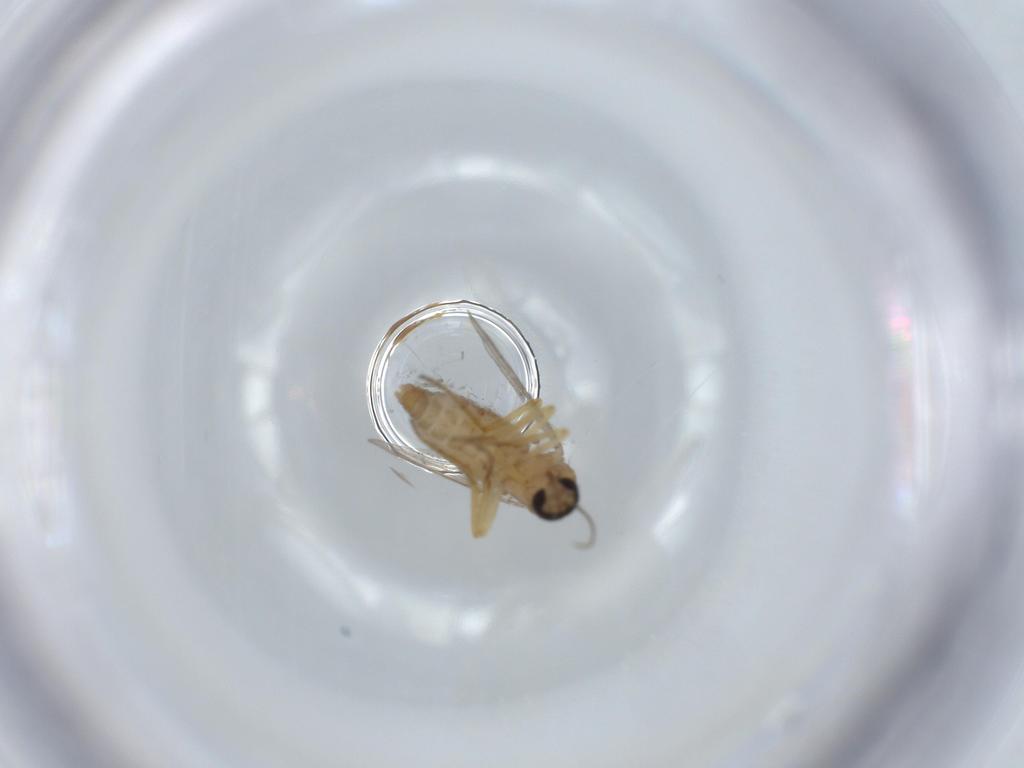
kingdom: Animalia
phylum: Arthropoda
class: Insecta
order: Diptera
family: Ceratopogonidae
